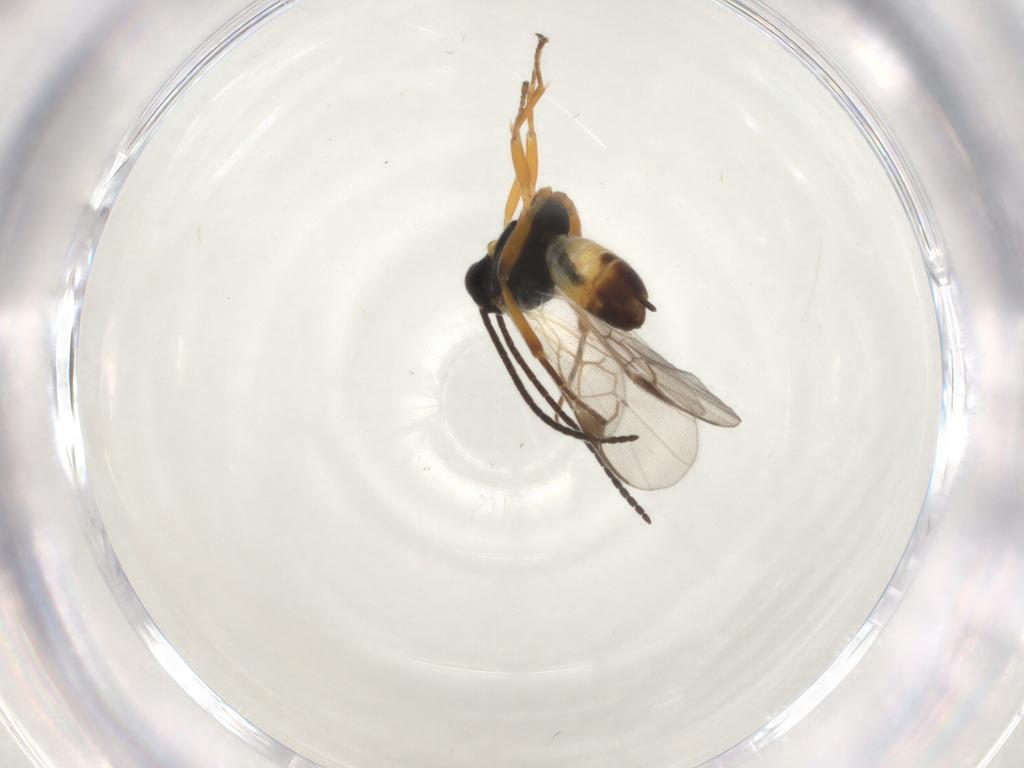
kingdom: Animalia
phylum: Arthropoda
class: Insecta
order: Hymenoptera
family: Braconidae
